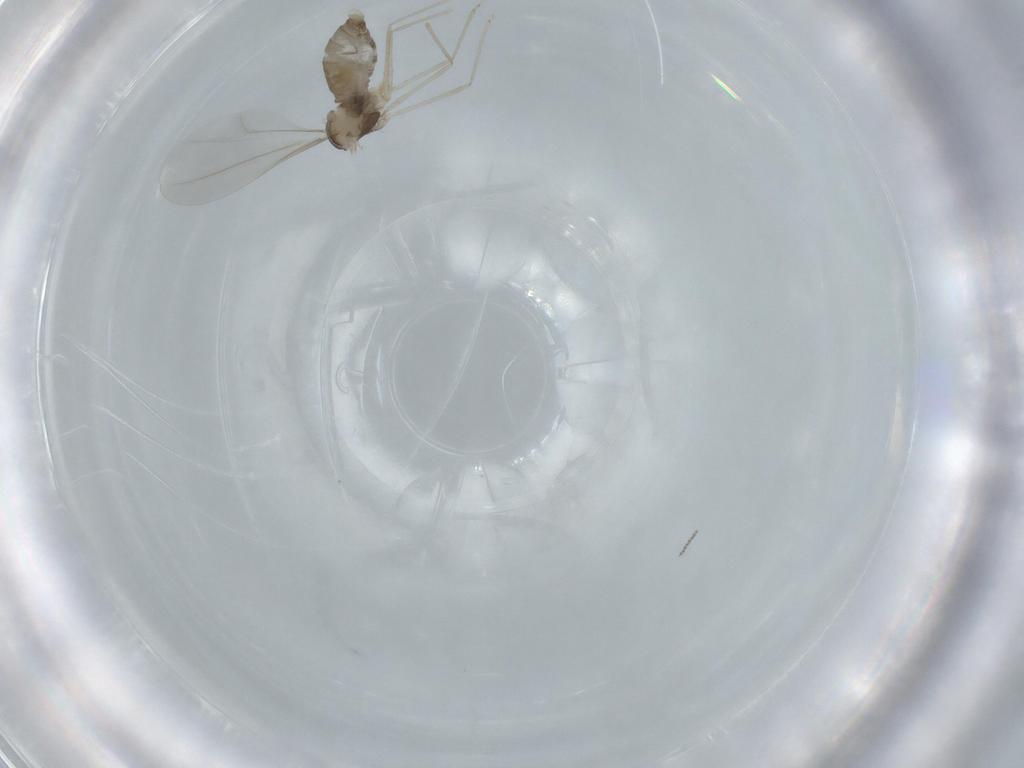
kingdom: Animalia
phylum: Arthropoda
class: Insecta
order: Diptera
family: Cecidomyiidae
